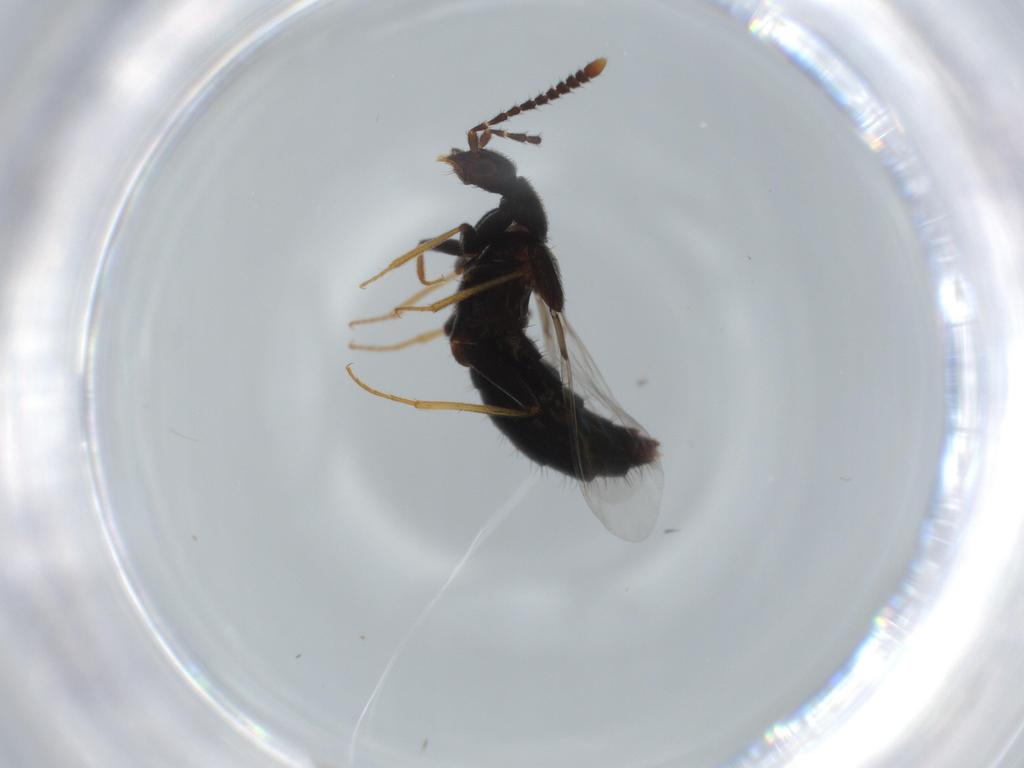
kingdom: Animalia
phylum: Arthropoda
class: Insecta
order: Coleoptera
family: Staphylinidae
